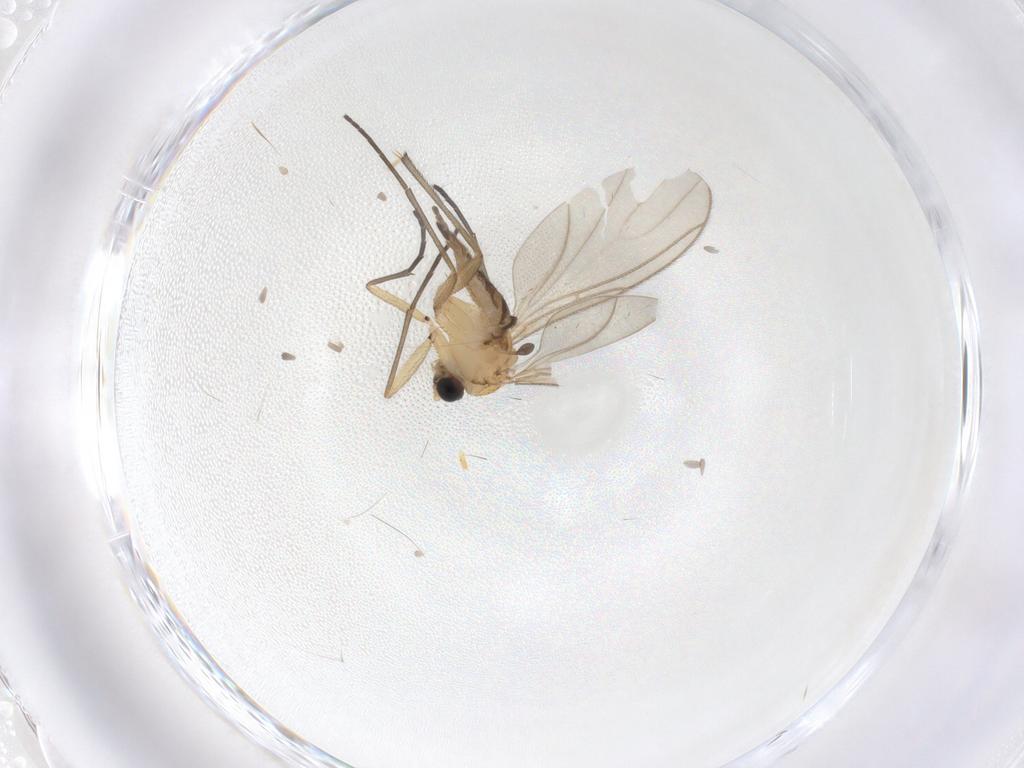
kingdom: Animalia
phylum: Arthropoda
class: Insecta
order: Diptera
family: Sciaridae
